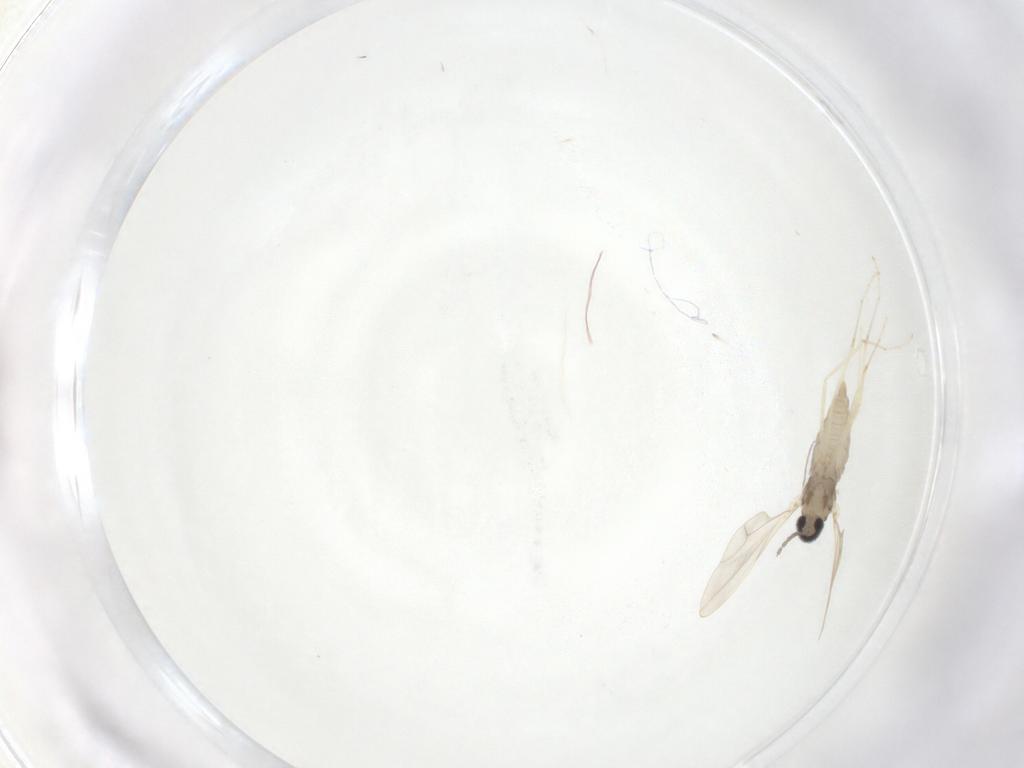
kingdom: Animalia
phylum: Arthropoda
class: Insecta
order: Diptera
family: Cecidomyiidae
